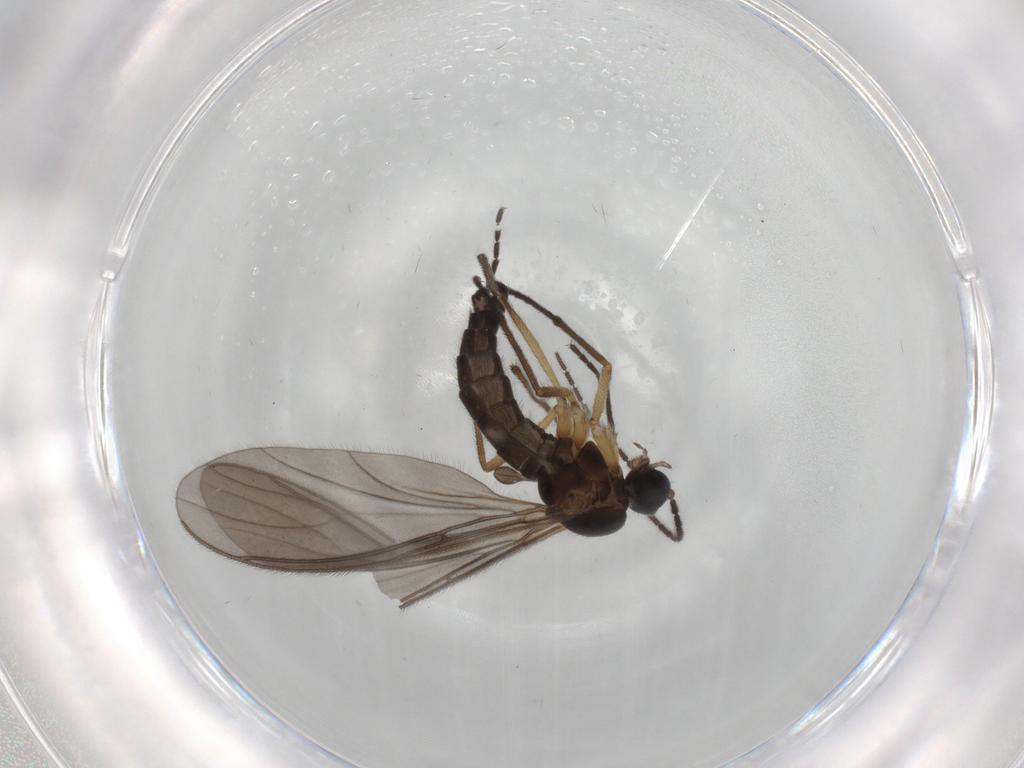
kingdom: Animalia
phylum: Arthropoda
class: Insecta
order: Diptera
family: Sciaridae
